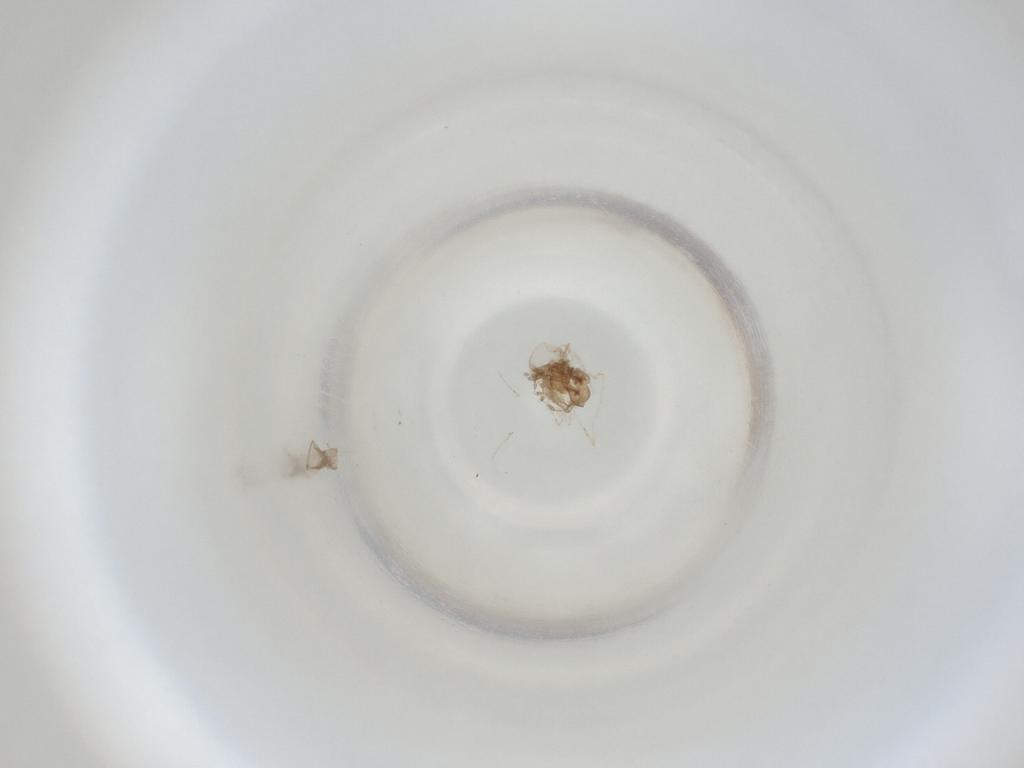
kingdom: Animalia
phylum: Arthropoda
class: Insecta
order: Diptera
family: Cecidomyiidae
